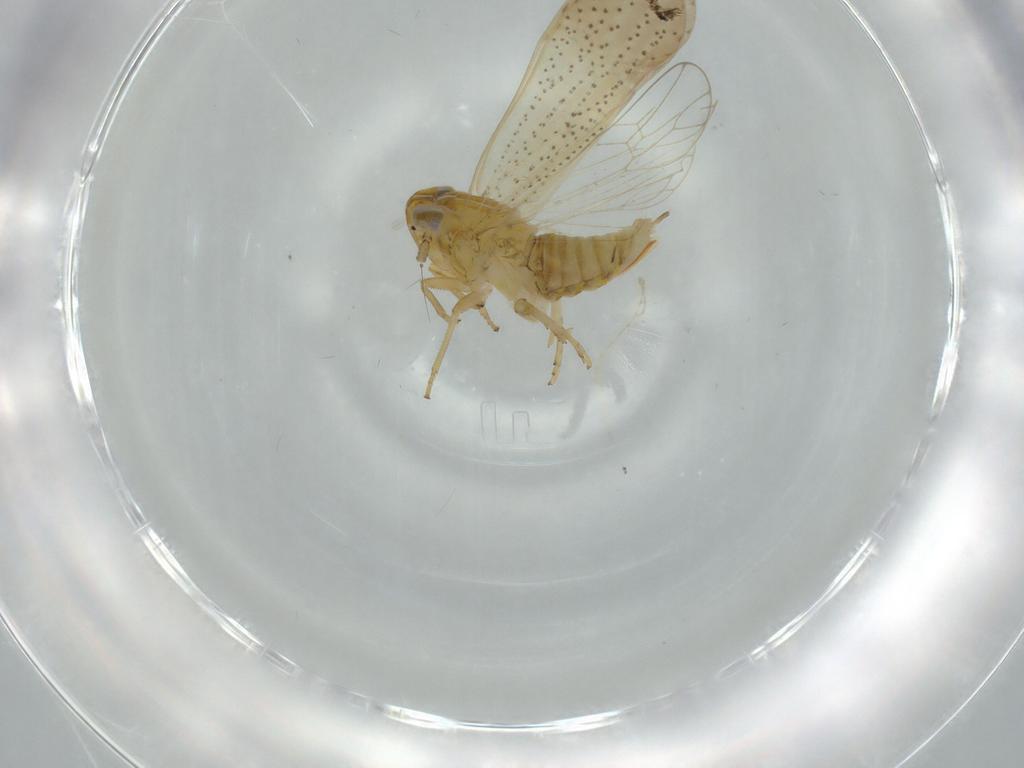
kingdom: Animalia
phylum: Arthropoda
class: Insecta
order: Hemiptera
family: Delphacidae
